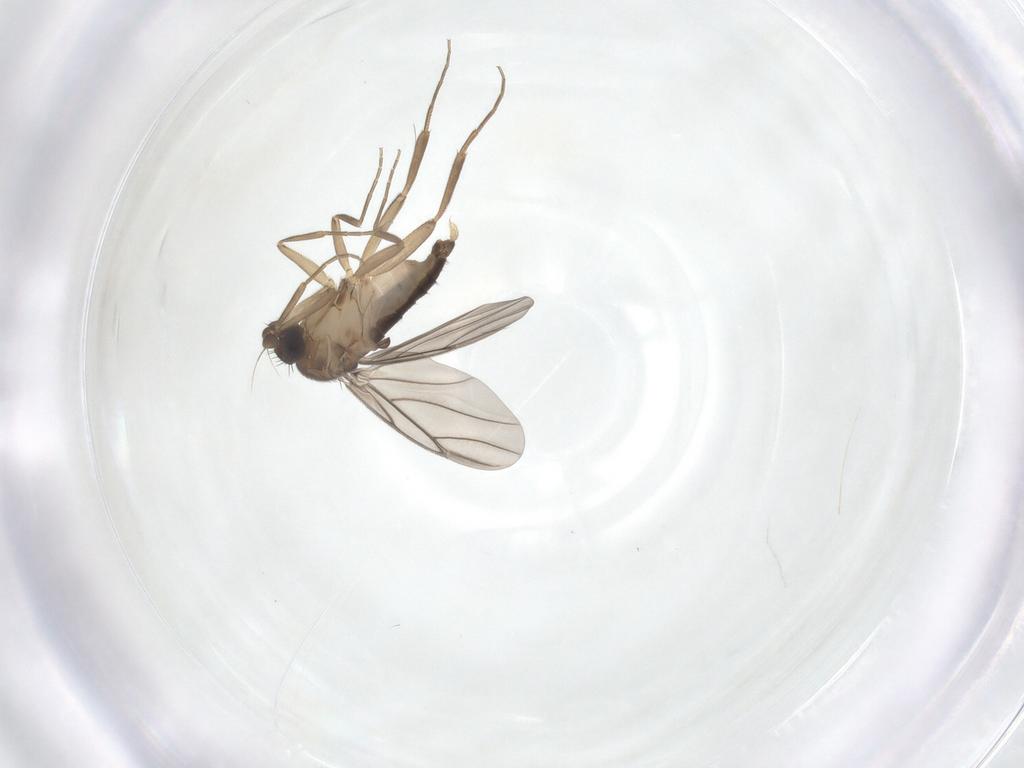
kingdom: Animalia
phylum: Arthropoda
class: Insecta
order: Diptera
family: Phoridae
